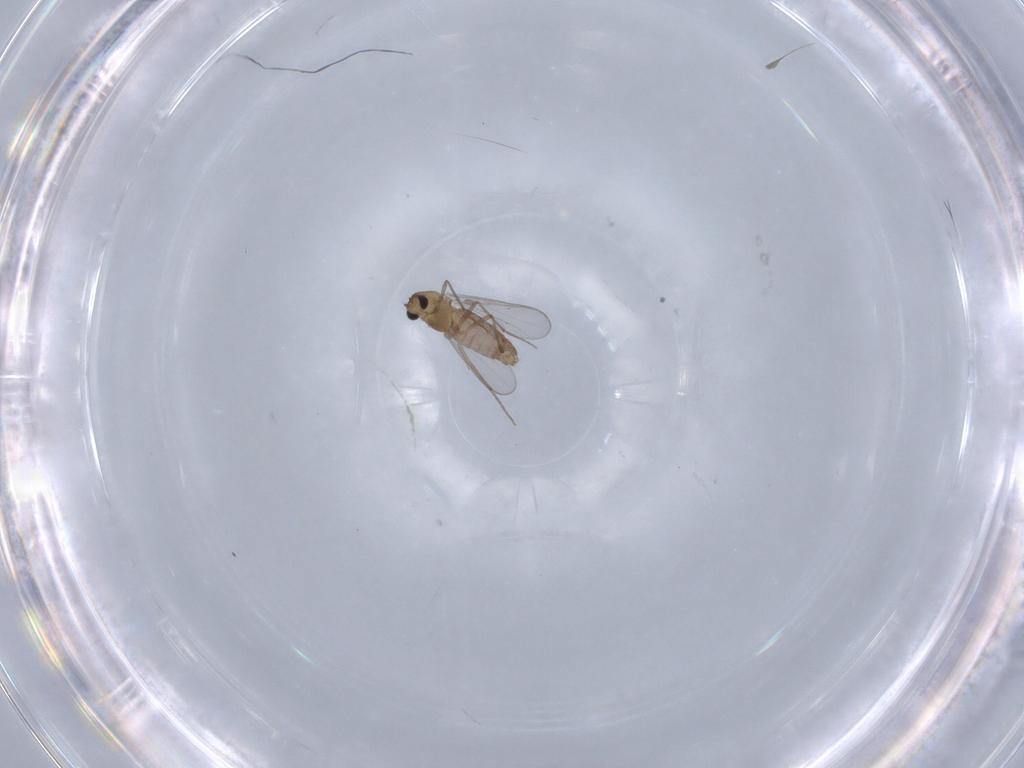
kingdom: Animalia
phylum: Arthropoda
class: Insecta
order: Diptera
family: Chironomidae
